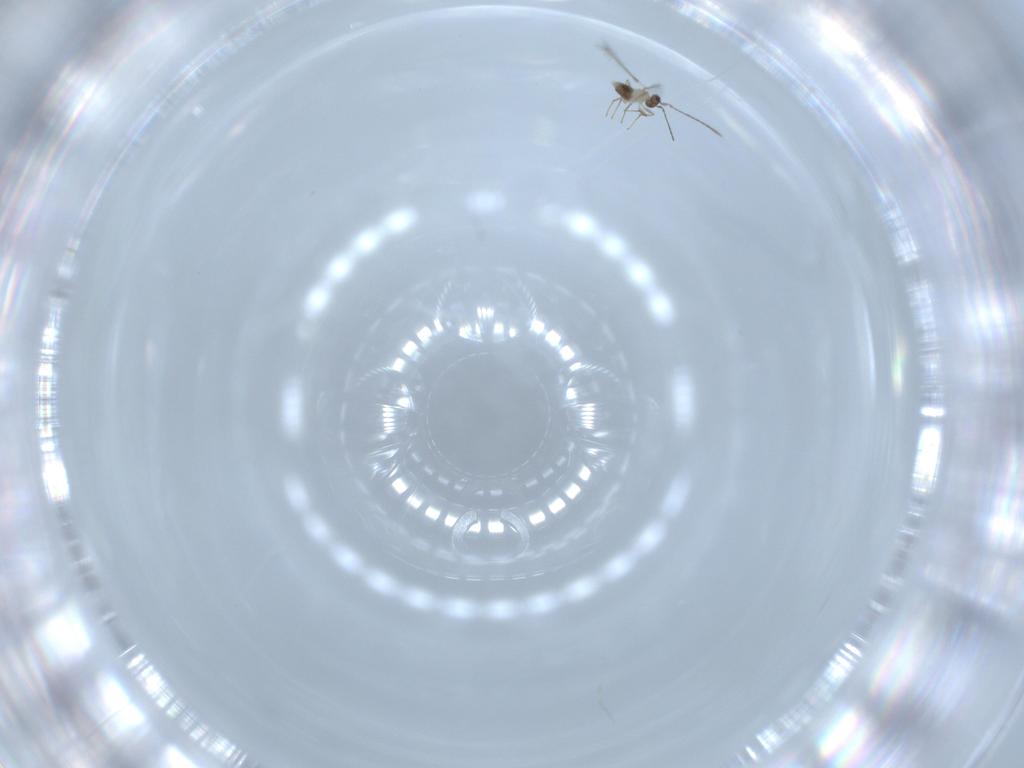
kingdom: Animalia
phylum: Arthropoda
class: Insecta
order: Hymenoptera
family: Mymaridae
